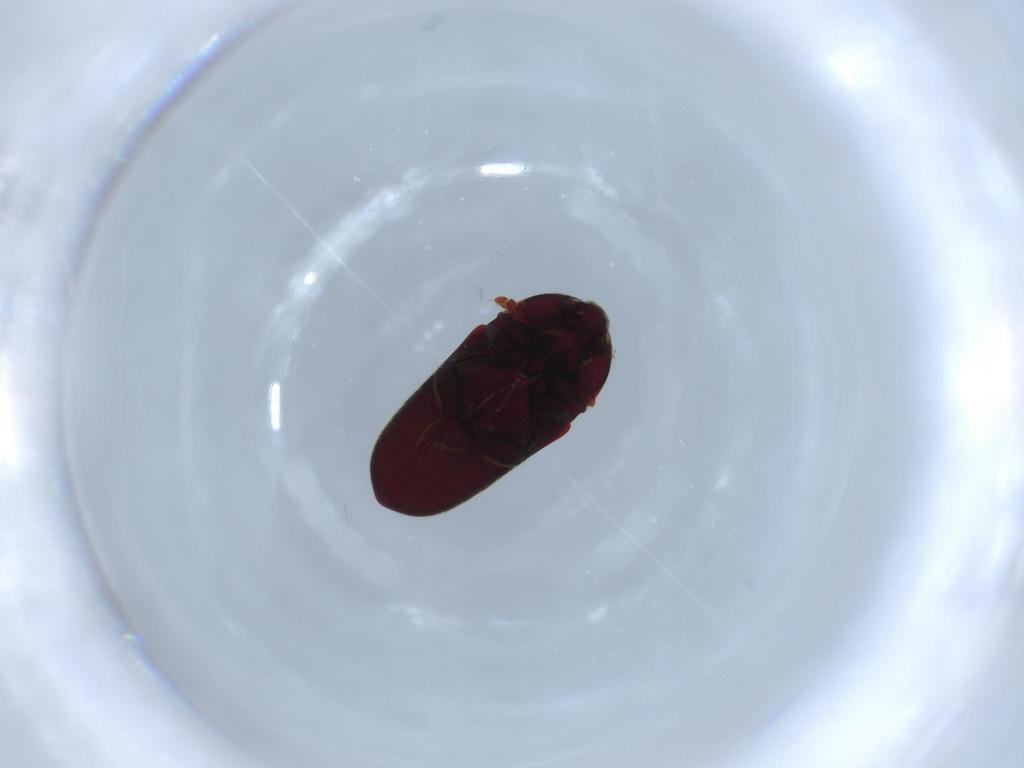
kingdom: Animalia
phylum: Arthropoda
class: Insecta
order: Coleoptera
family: Throscidae
